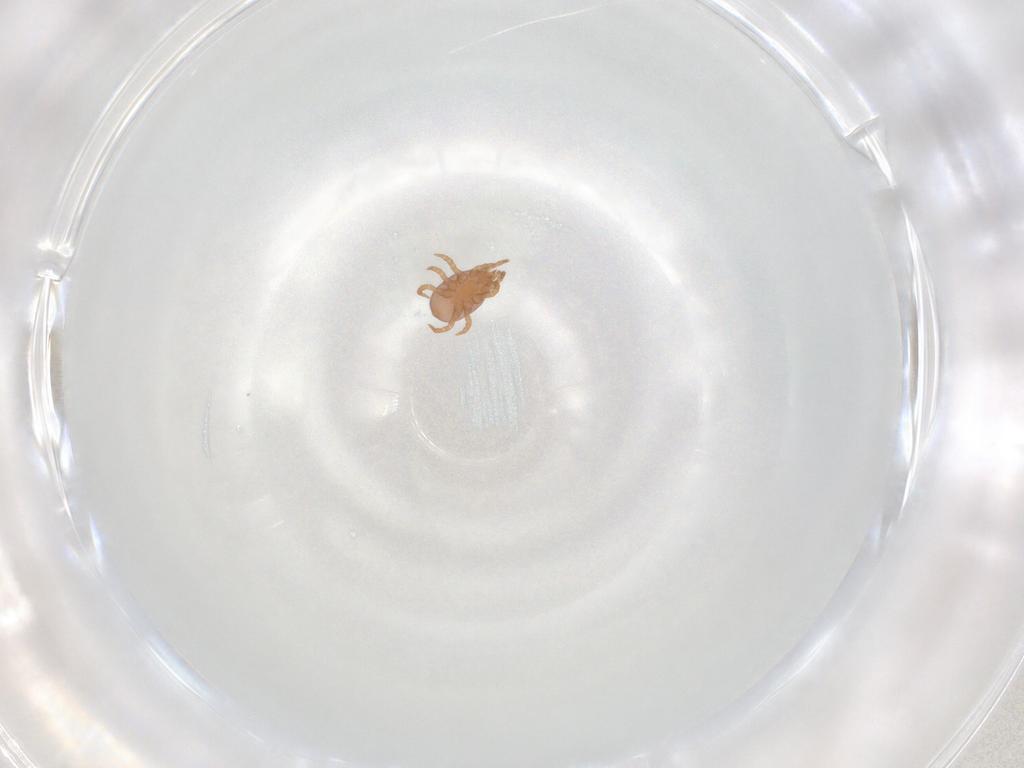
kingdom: Animalia
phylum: Arthropoda
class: Arachnida
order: Mesostigmata
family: Eviphididae
